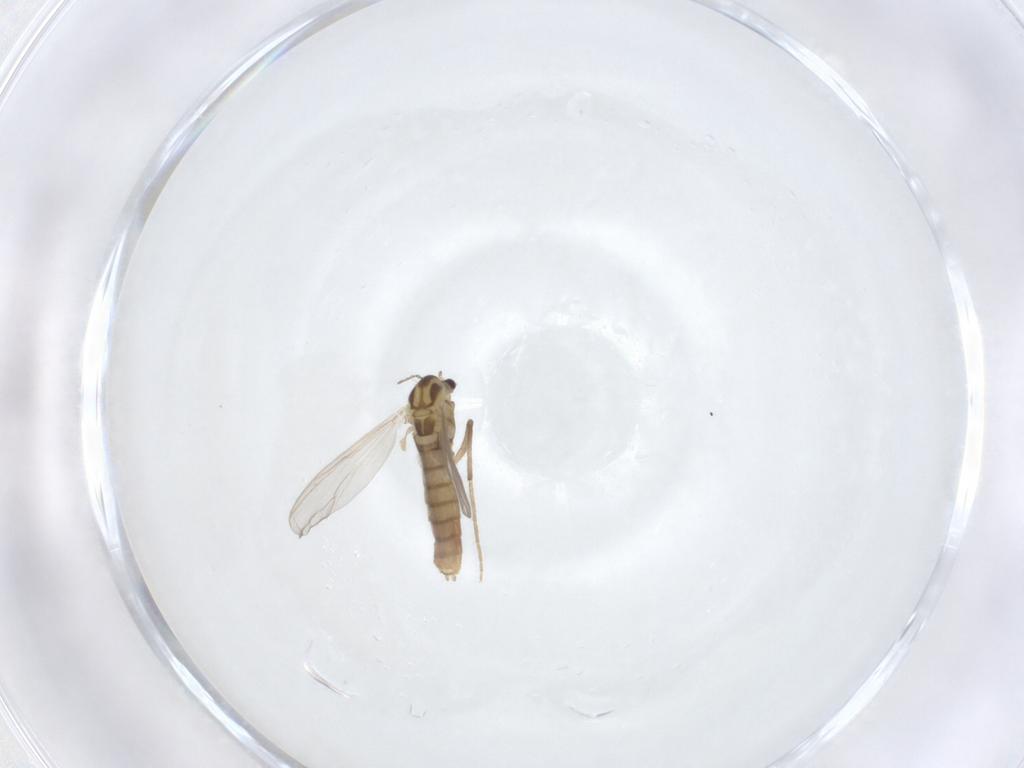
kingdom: Animalia
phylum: Arthropoda
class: Insecta
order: Diptera
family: Chironomidae
